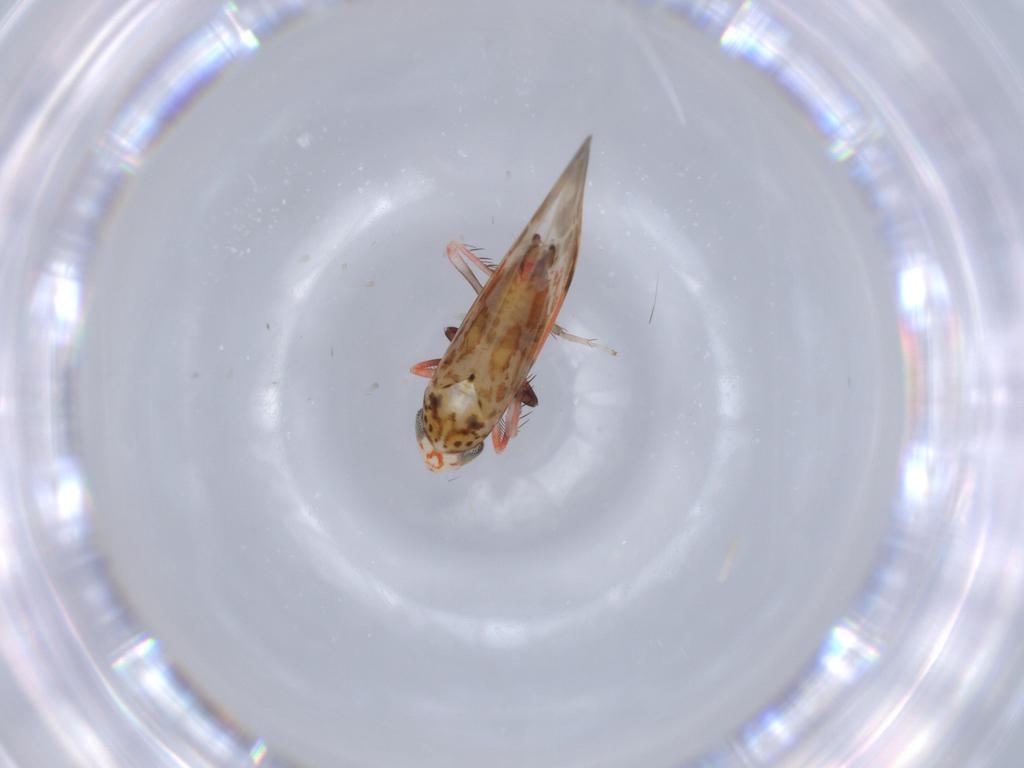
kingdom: Animalia
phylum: Arthropoda
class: Insecta
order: Hemiptera
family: Cicadellidae
